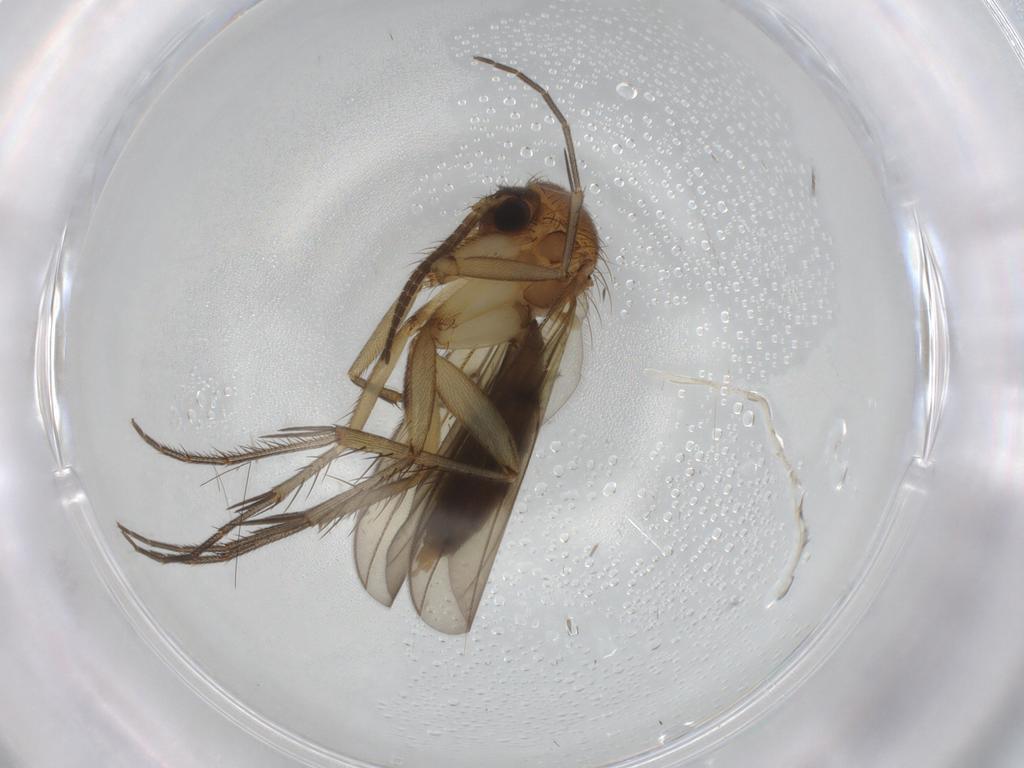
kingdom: Animalia
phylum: Arthropoda
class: Insecta
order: Diptera
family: Mycetophilidae
